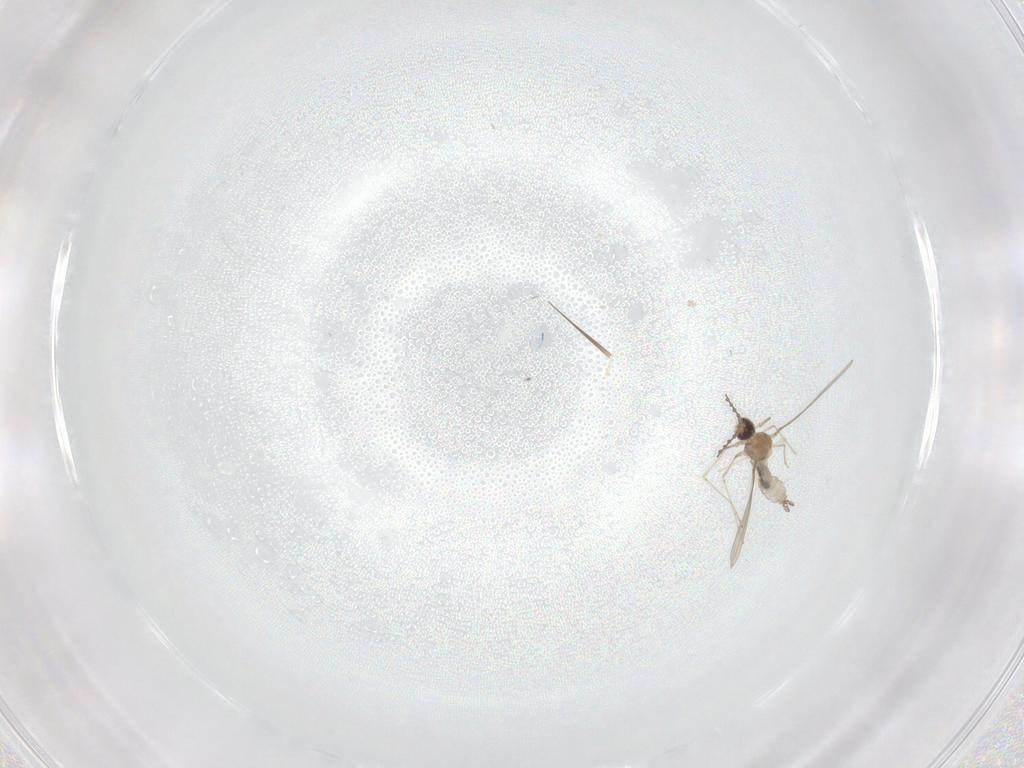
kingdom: Animalia
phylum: Arthropoda
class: Insecta
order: Diptera
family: Cecidomyiidae
